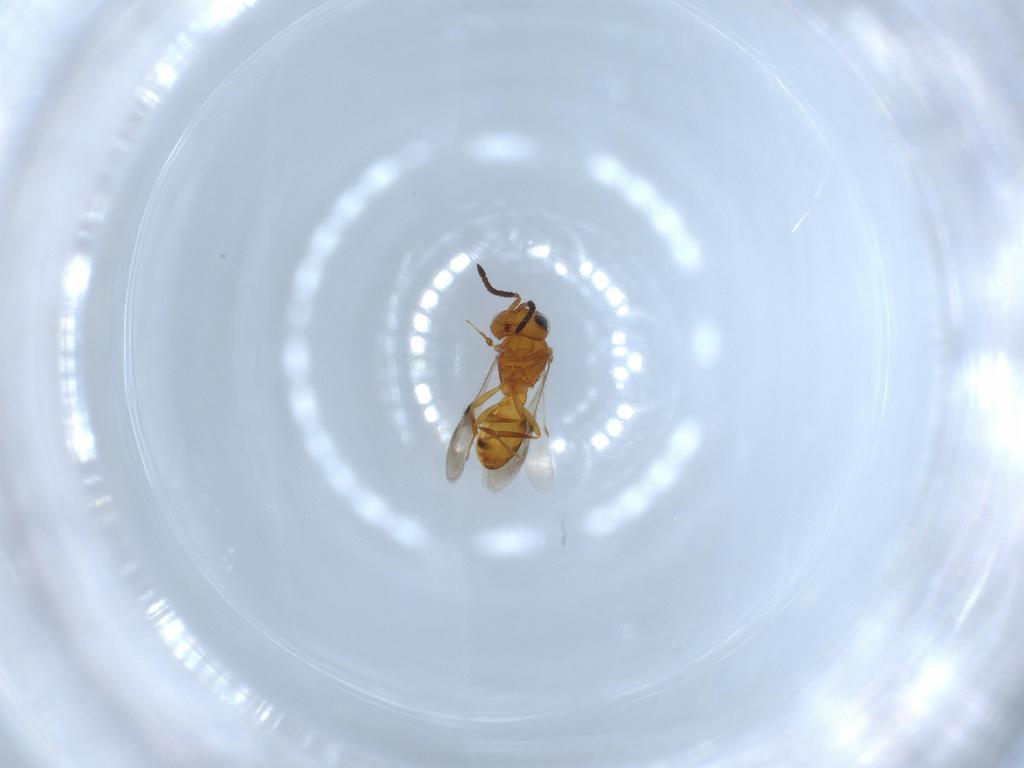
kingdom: Animalia
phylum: Arthropoda
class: Insecta
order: Hymenoptera
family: Scelionidae
